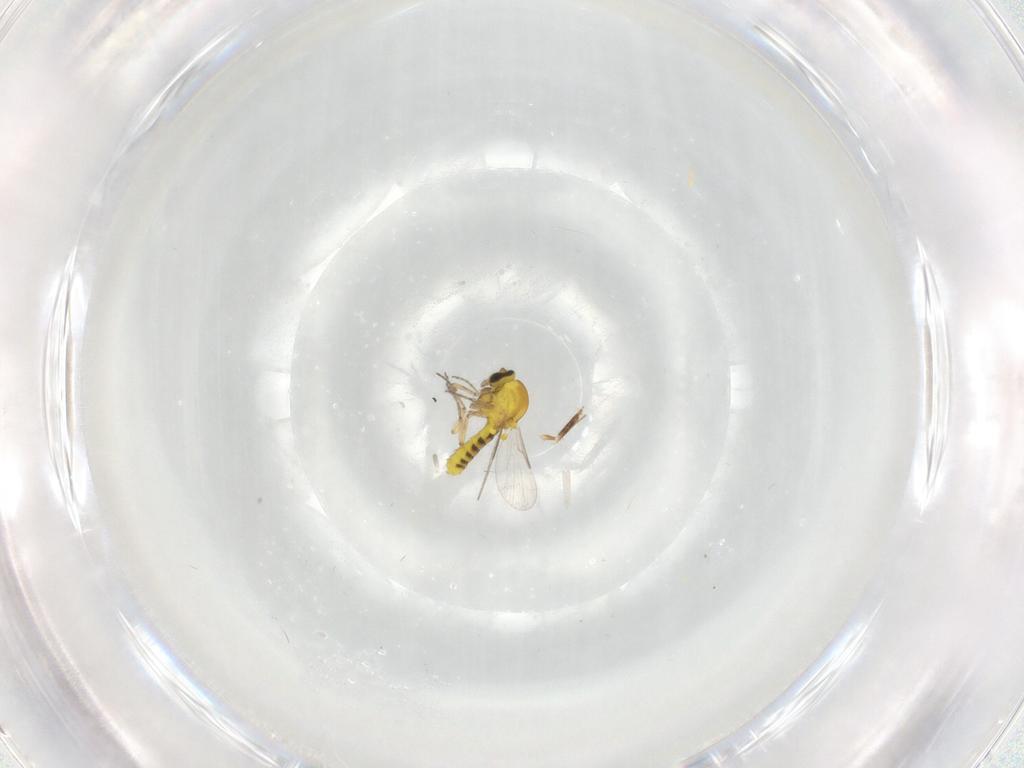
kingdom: Animalia
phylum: Arthropoda
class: Insecta
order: Diptera
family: Ceratopogonidae
